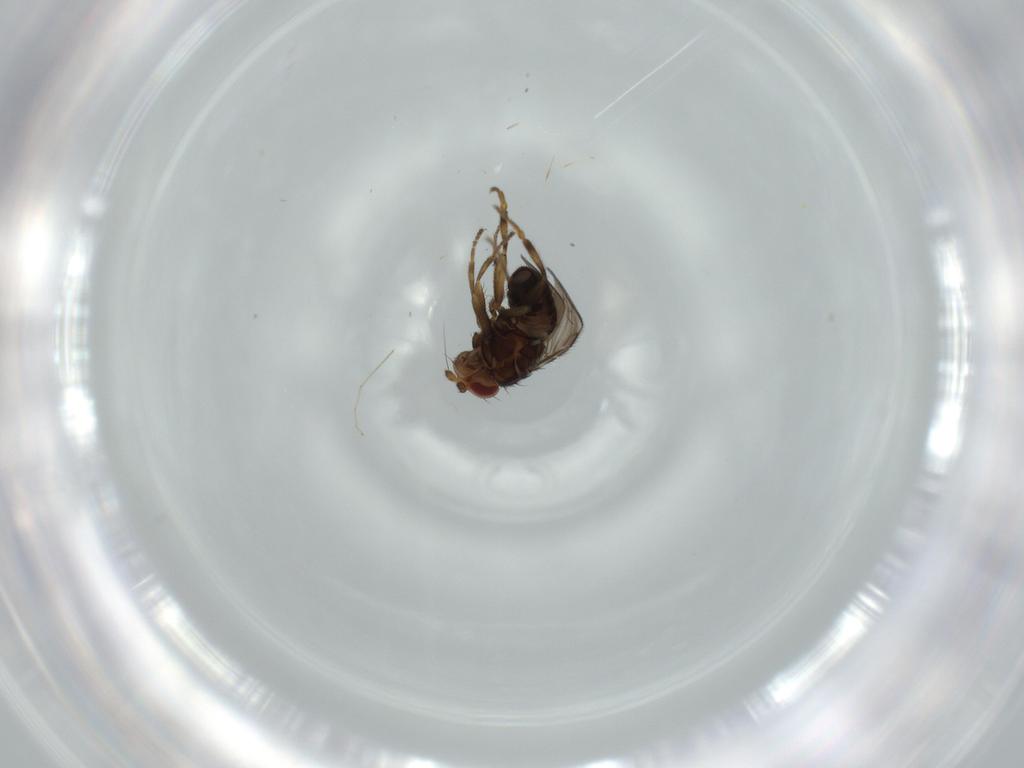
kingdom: Animalia
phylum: Arthropoda
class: Insecta
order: Diptera
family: Sphaeroceridae
